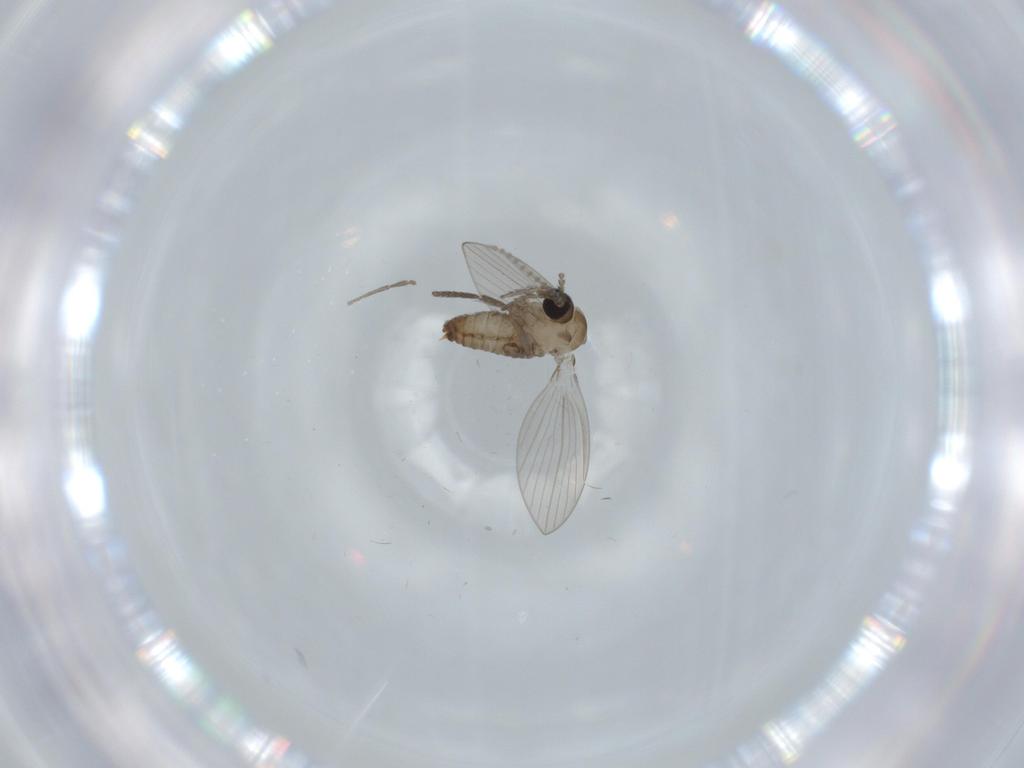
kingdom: Animalia
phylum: Arthropoda
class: Insecta
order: Diptera
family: Psychodidae
